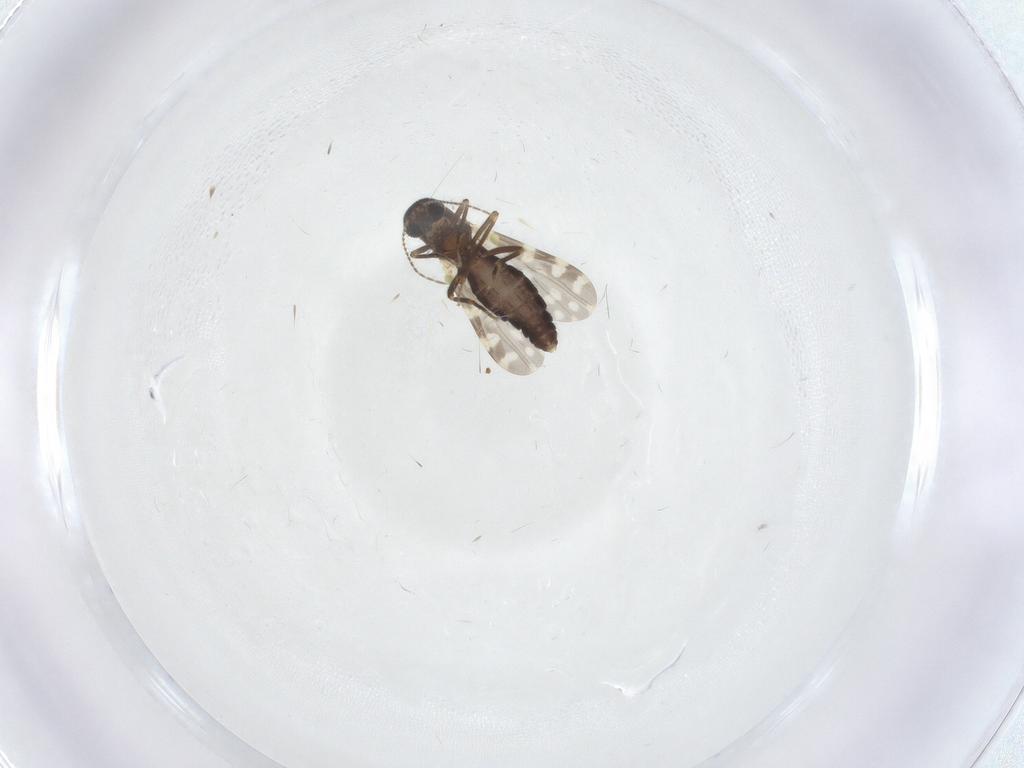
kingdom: Animalia
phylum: Arthropoda
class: Insecta
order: Diptera
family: Ceratopogonidae
